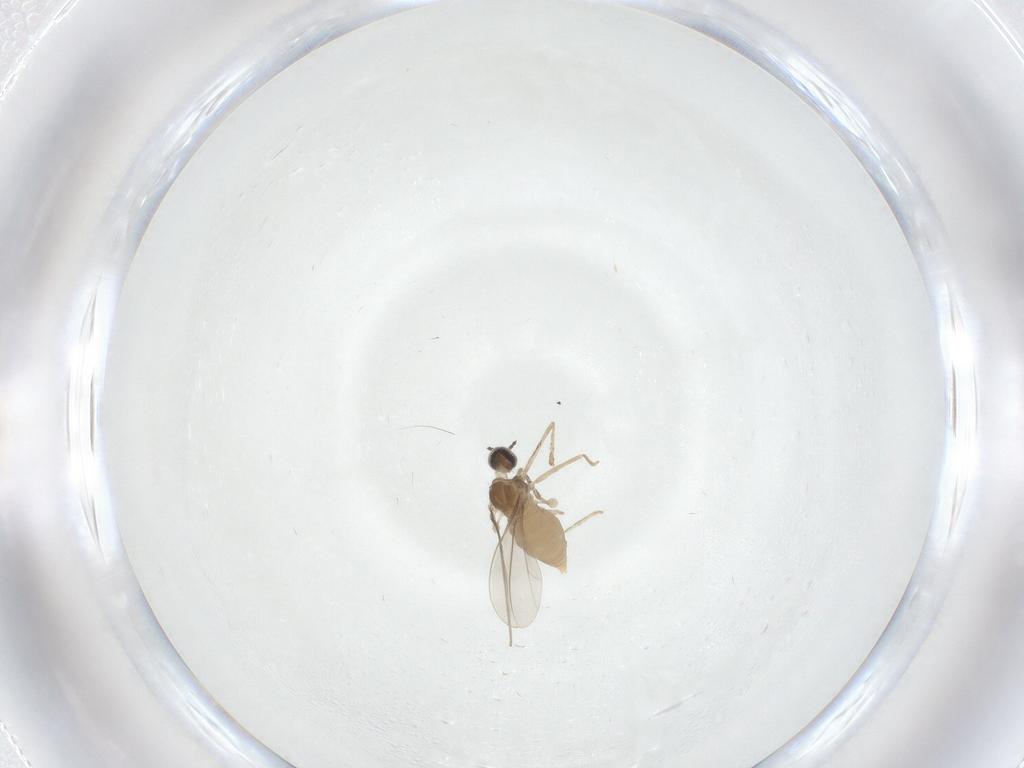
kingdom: Animalia
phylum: Arthropoda
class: Insecta
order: Diptera
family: Cecidomyiidae
